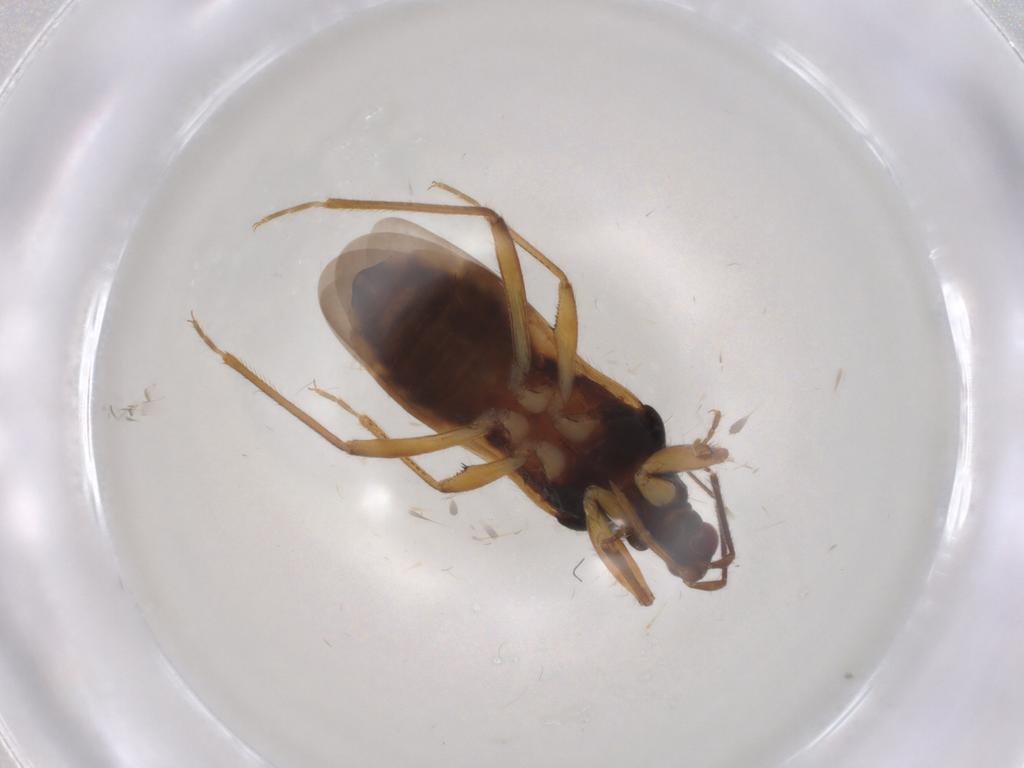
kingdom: Animalia
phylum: Arthropoda
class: Insecta
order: Hemiptera
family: Nabidae
